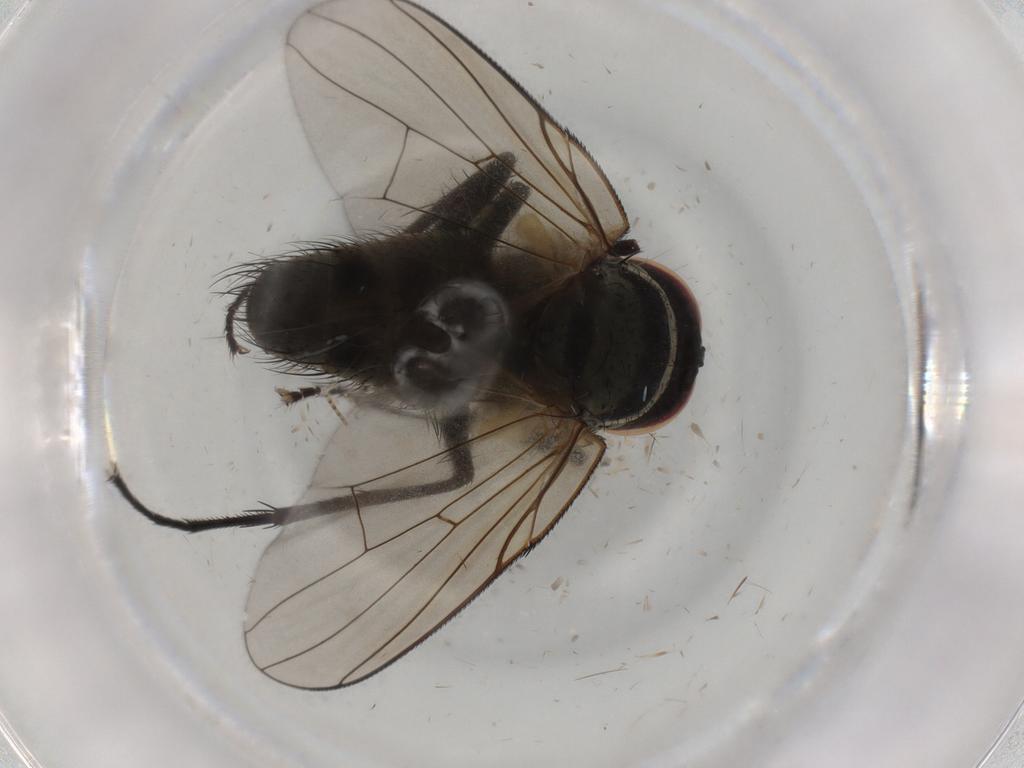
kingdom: Animalia
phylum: Arthropoda
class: Insecta
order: Diptera
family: Muscidae
